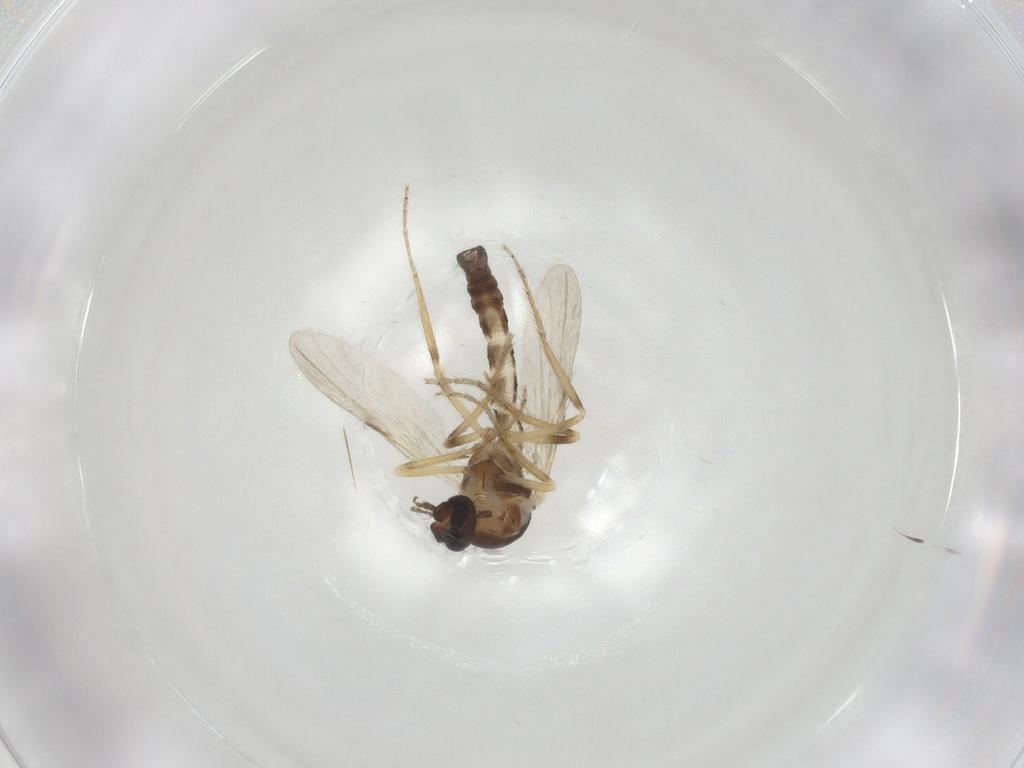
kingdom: Animalia
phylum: Arthropoda
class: Insecta
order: Diptera
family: Ceratopogonidae
